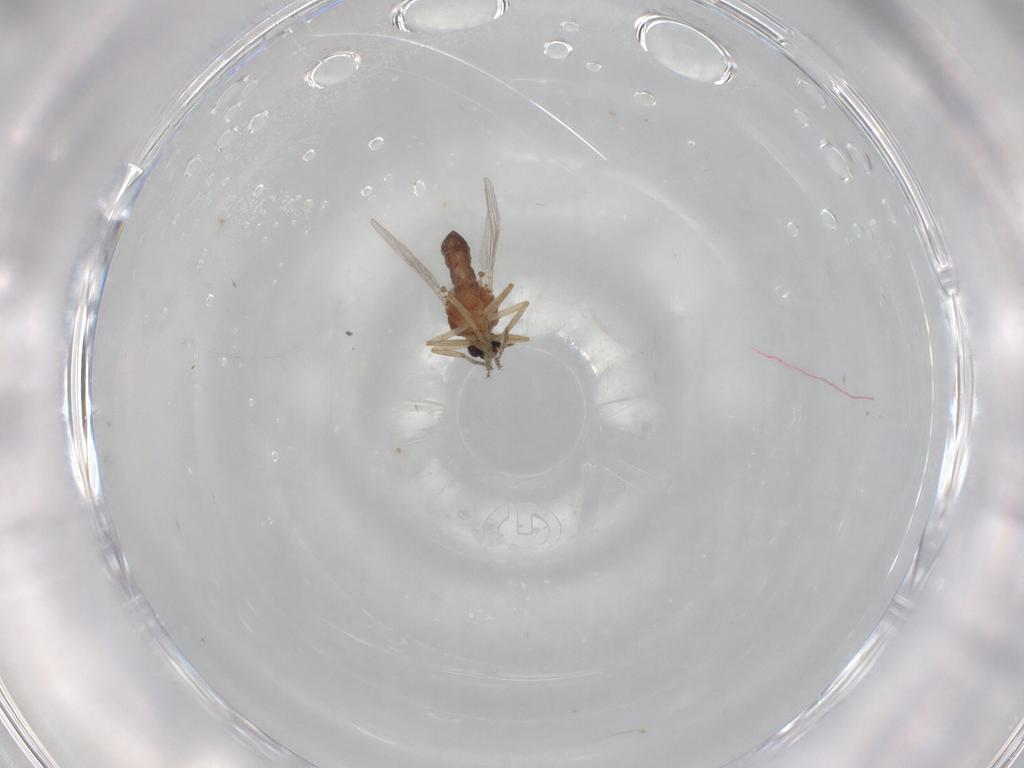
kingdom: Animalia
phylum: Arthropoda
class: Insecta
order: Diptera
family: Ceratopogonidae
